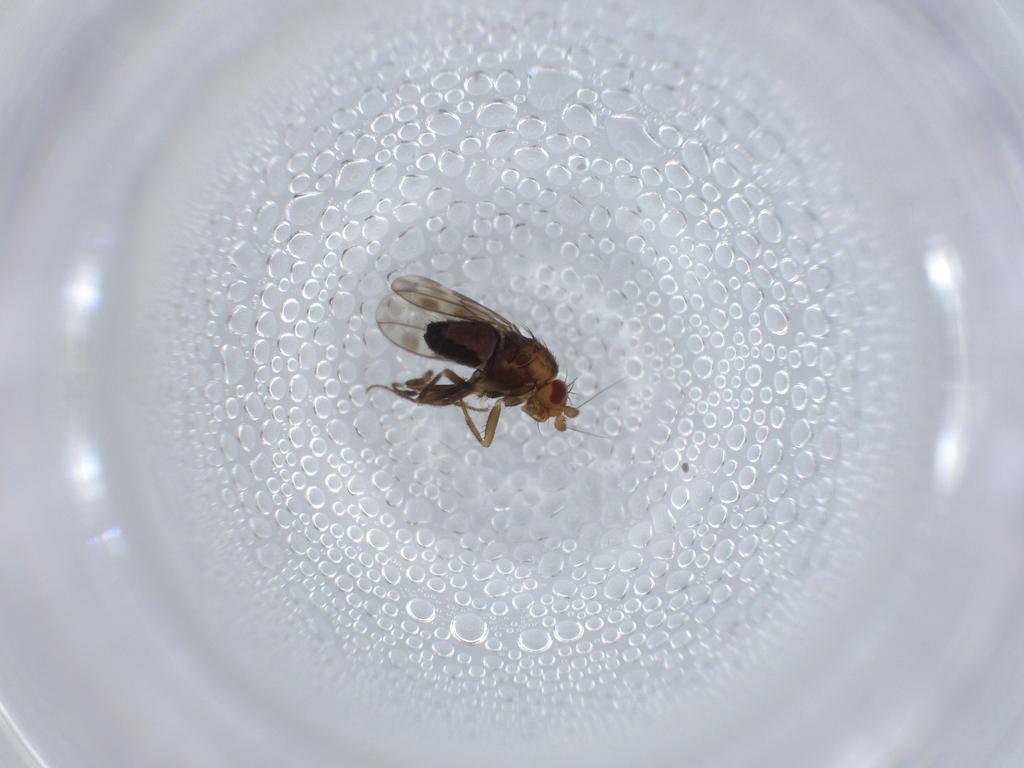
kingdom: Animalia
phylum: Arthropoda
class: Insecta
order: Diptera
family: Sphaeroceridae
